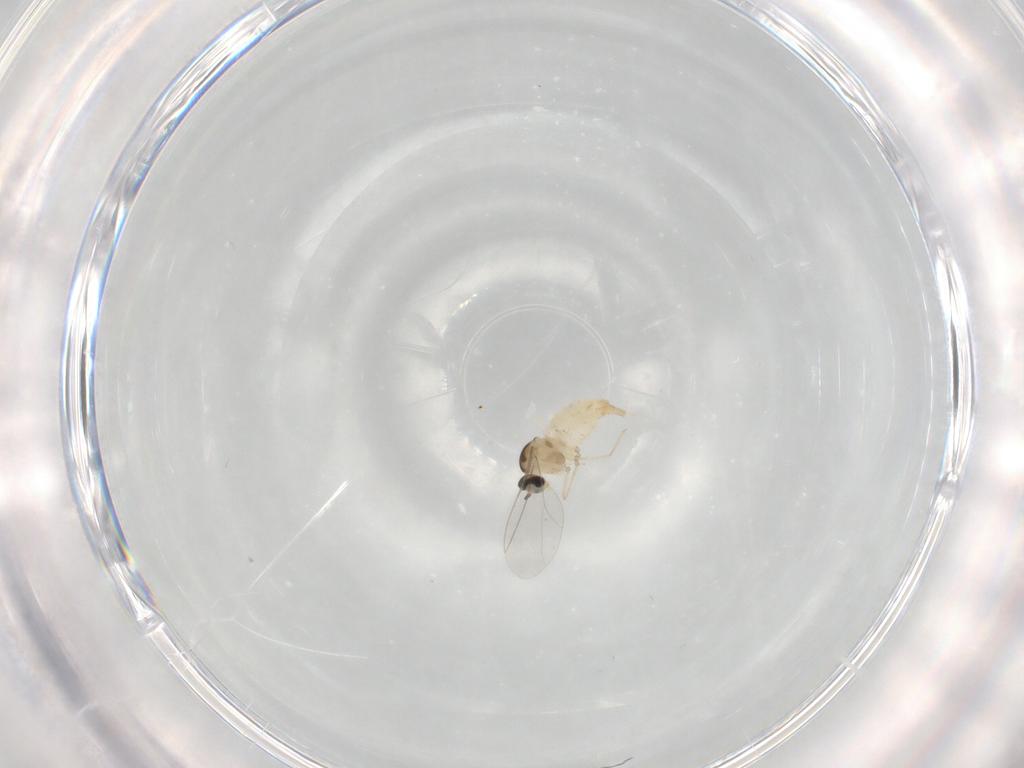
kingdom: Animalia
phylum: Arthropoda
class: Insecta
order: Diptera
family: Cecidomyiidae
